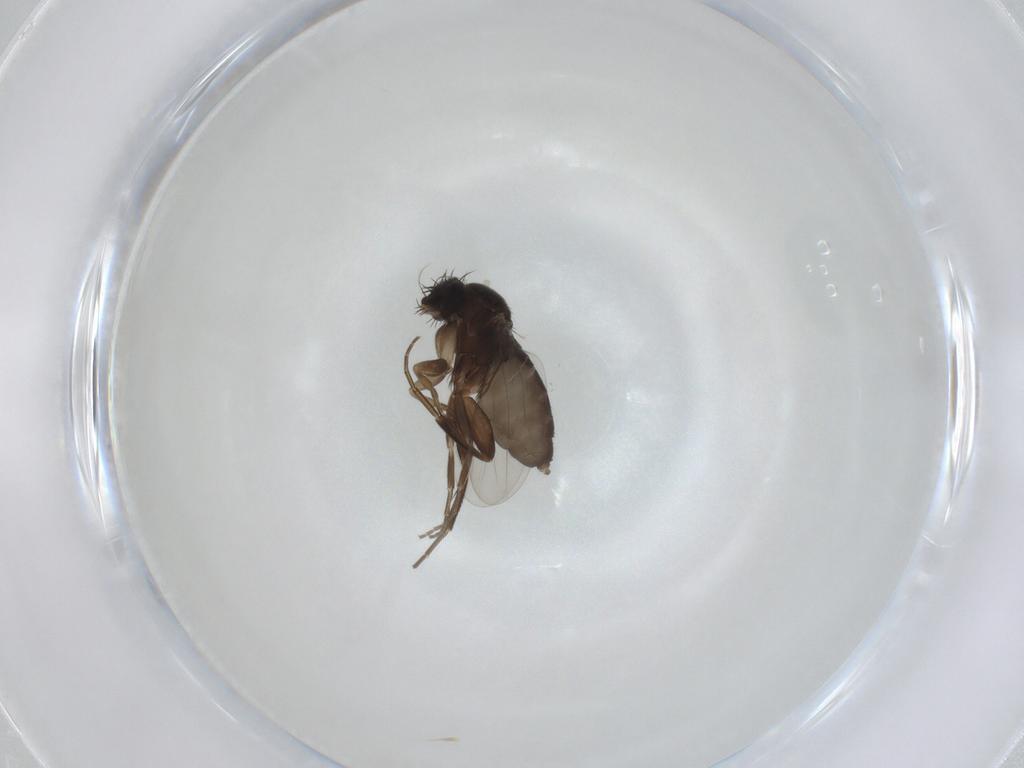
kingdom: Animalia
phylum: Arthropoda
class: Insecta
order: Diptera
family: Phoridae
